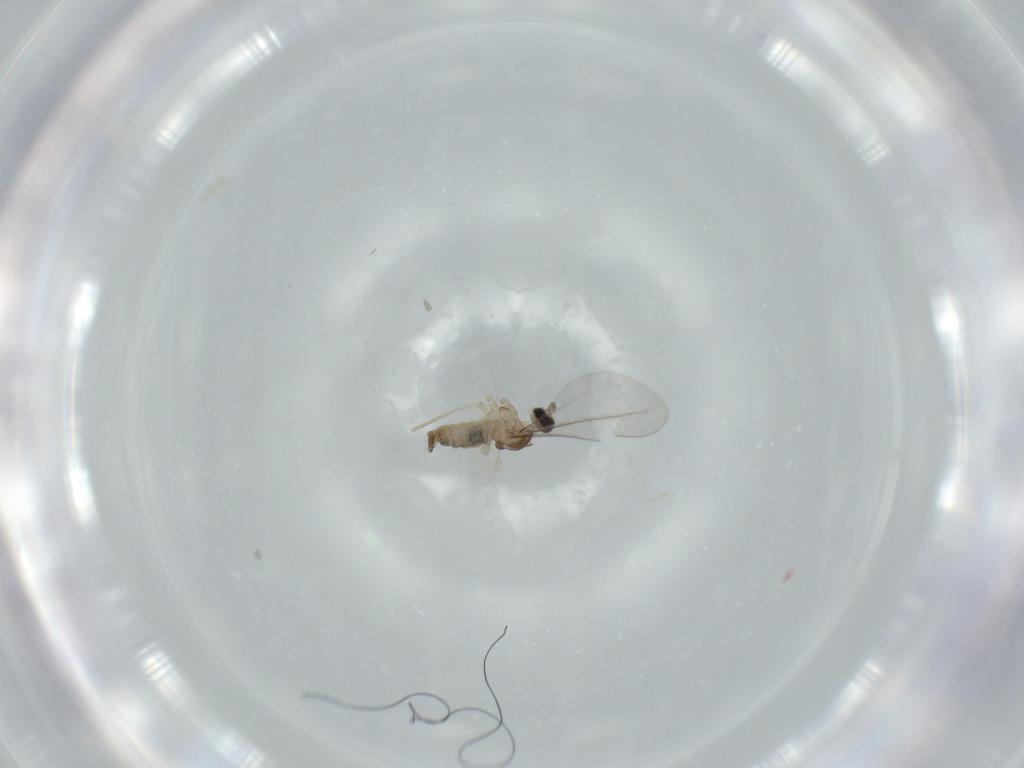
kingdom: Animalia
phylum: Arthropoda
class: Insecta
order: Diptera
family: Cecidomyiidae
